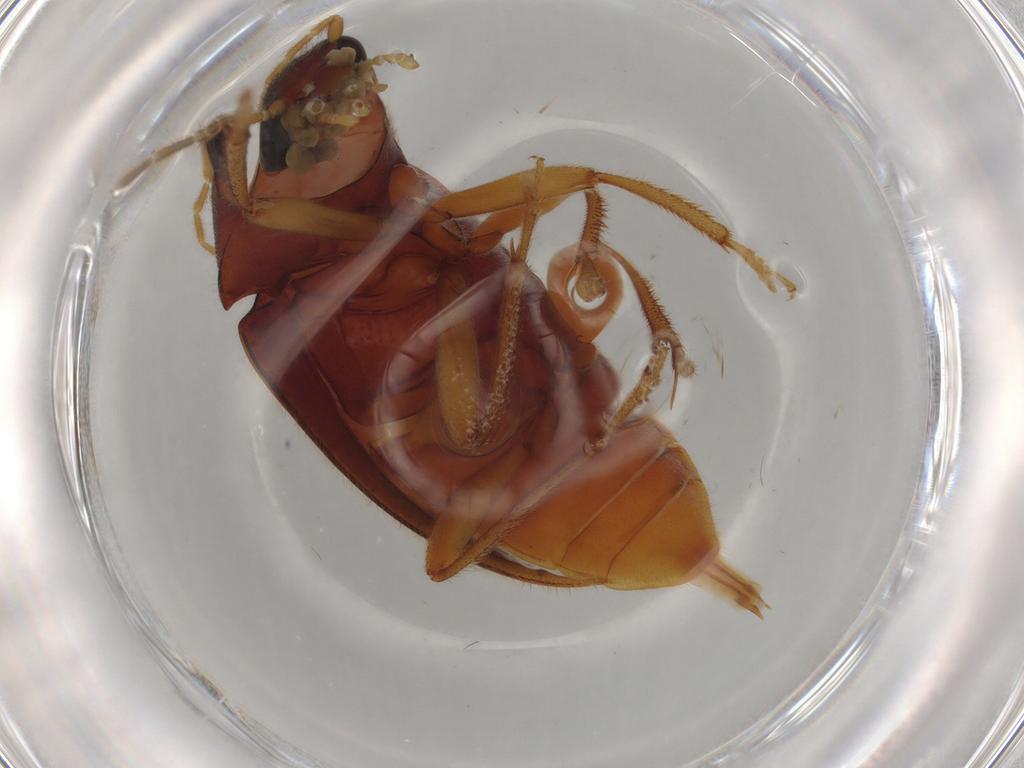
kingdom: Animalia
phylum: Arthropoda
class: Insecta
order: Coleoptera
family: Ptilodactylidae
